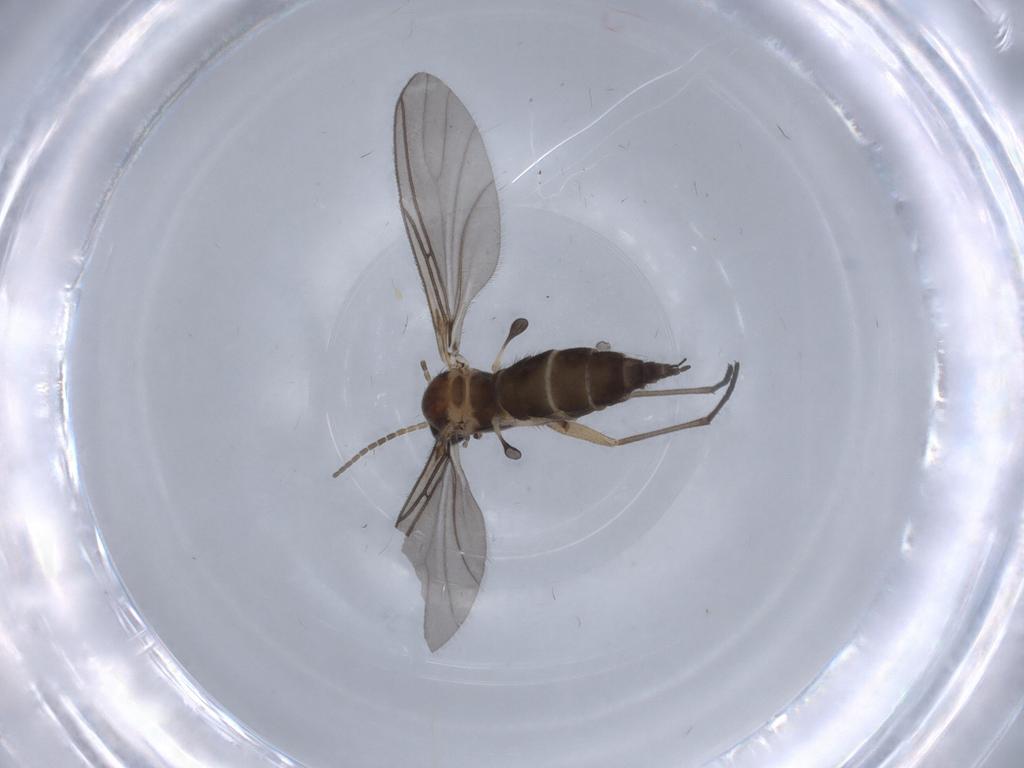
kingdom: Animalia
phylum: Arthropoda
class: Insecta
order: Diptera
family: Sciaridae
